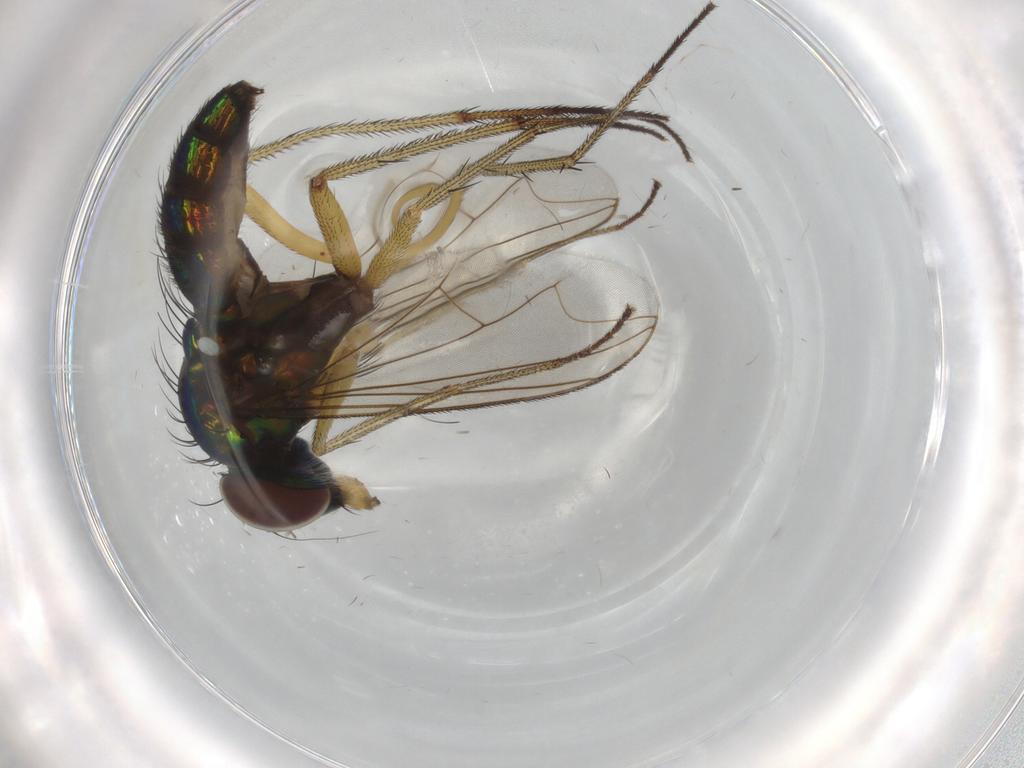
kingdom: Animalia
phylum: Arthropoda
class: Insecta
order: Diptera
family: Dolichopodidae
